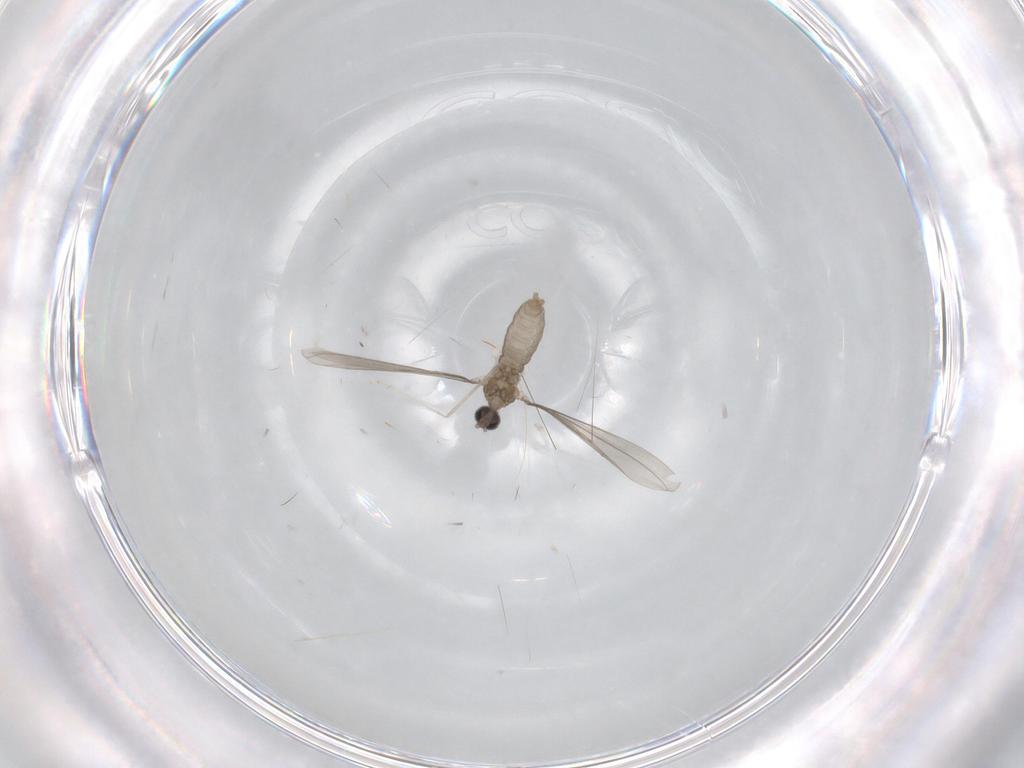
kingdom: Animalia
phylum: Arthropoda
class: Insecta
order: Diptera
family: Cecidomyiidae
